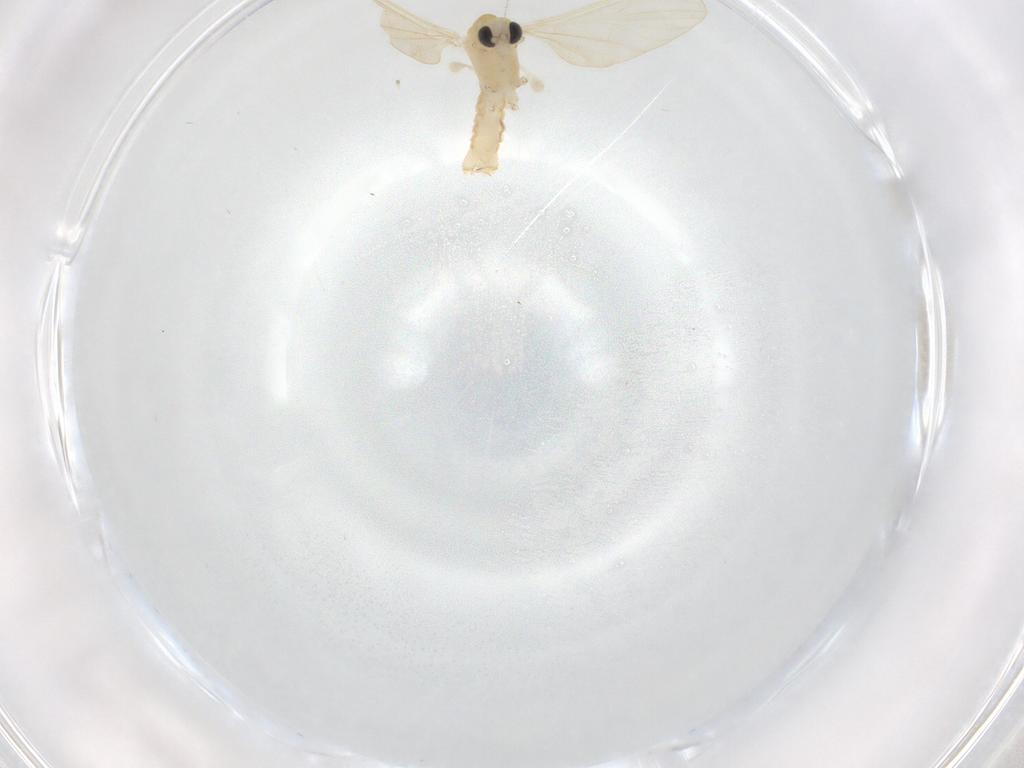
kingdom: Animalia
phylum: Arthropoda
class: Insecta
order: Diptera
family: Limoniidae
